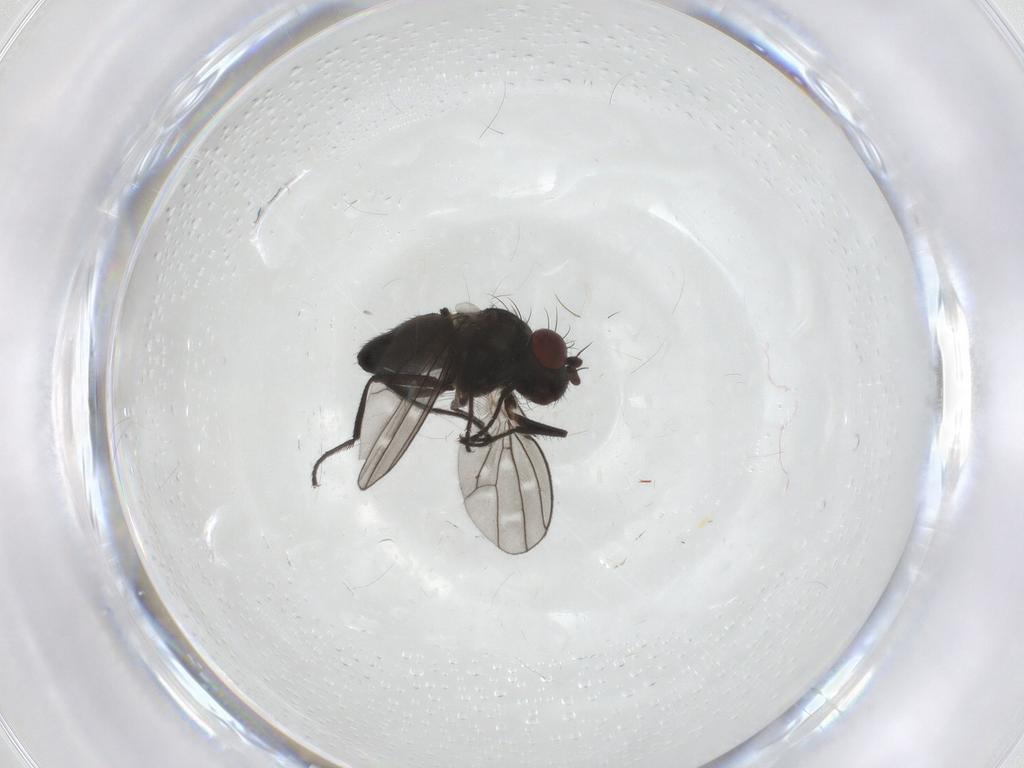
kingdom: Animalia
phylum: Arthropoda
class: Insecta
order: Diptera
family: Ephydridae
